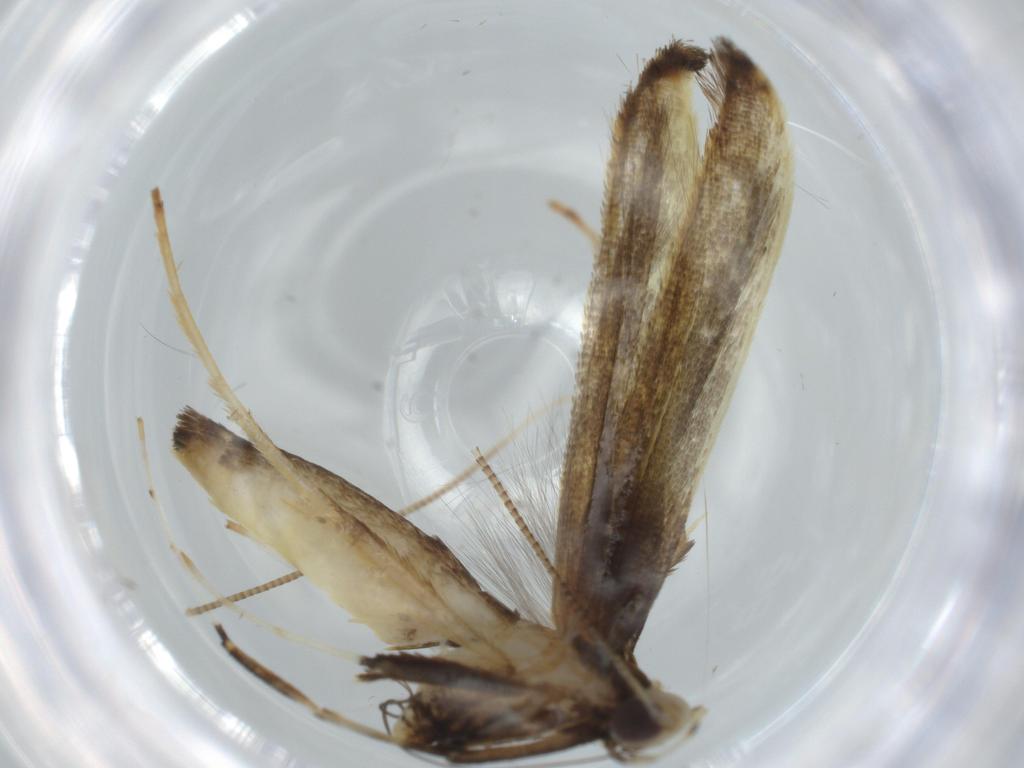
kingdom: Animalia
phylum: Arthropoda
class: Insecta
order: Lepidoptera
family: Gracillariidae
